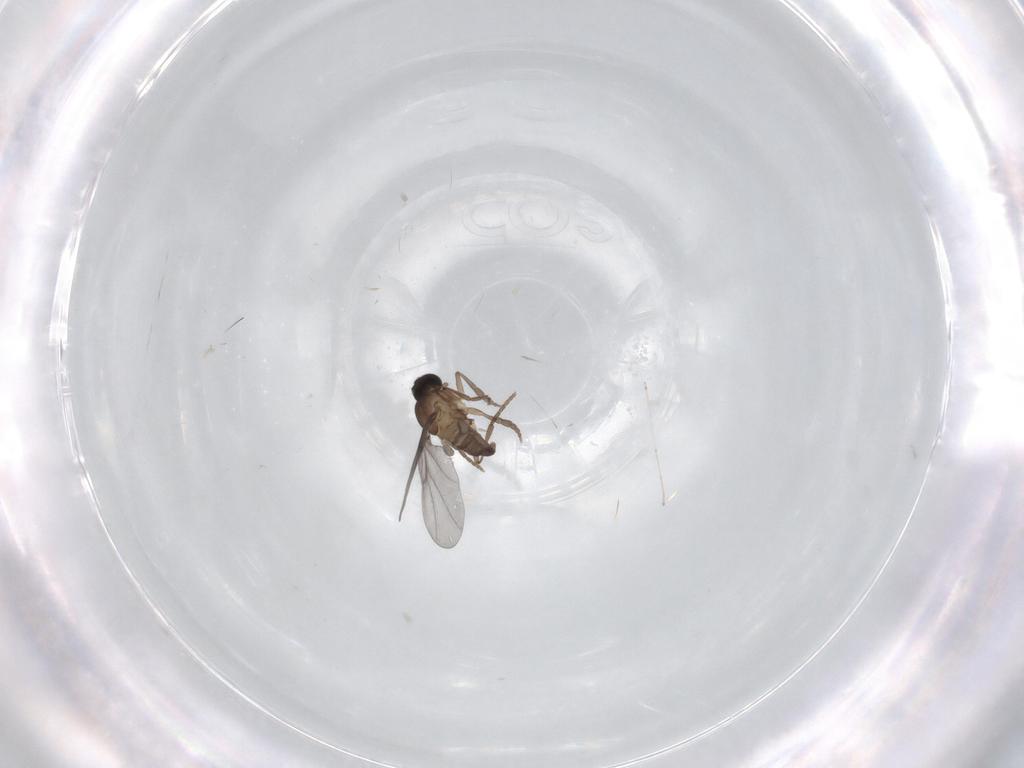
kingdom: Animalia
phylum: Arthropoda
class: Insecta
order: Diptera
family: Phoridae
